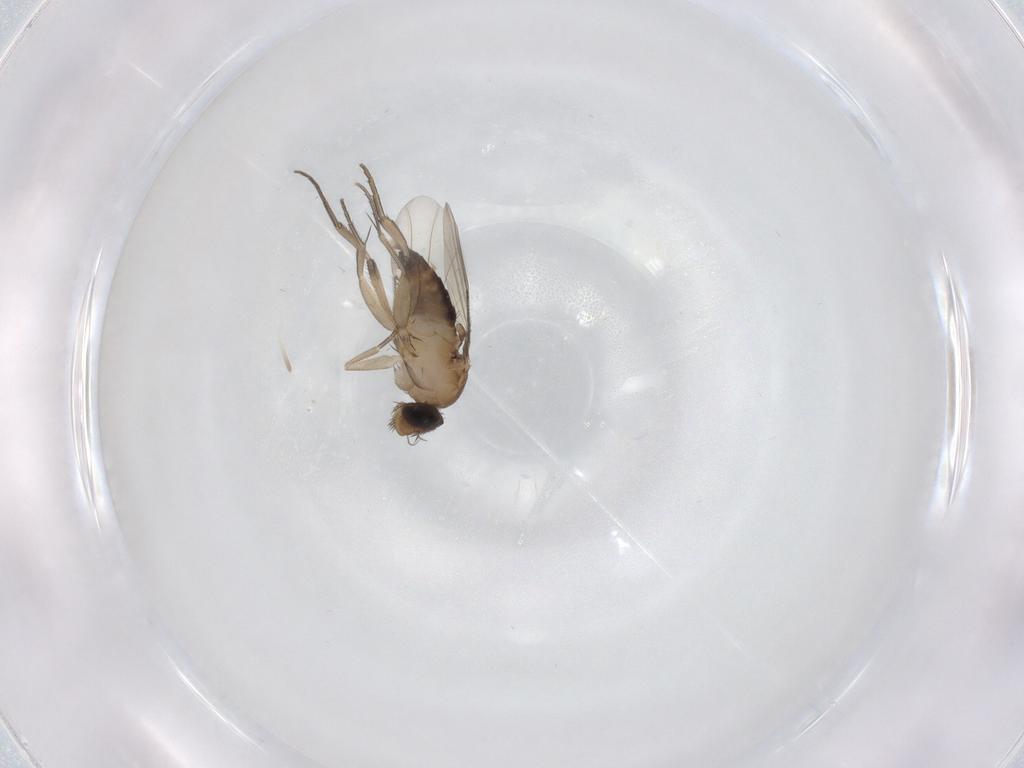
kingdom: Animalia
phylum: Arthropoda
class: Insecta
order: Diptera
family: Phoridae
